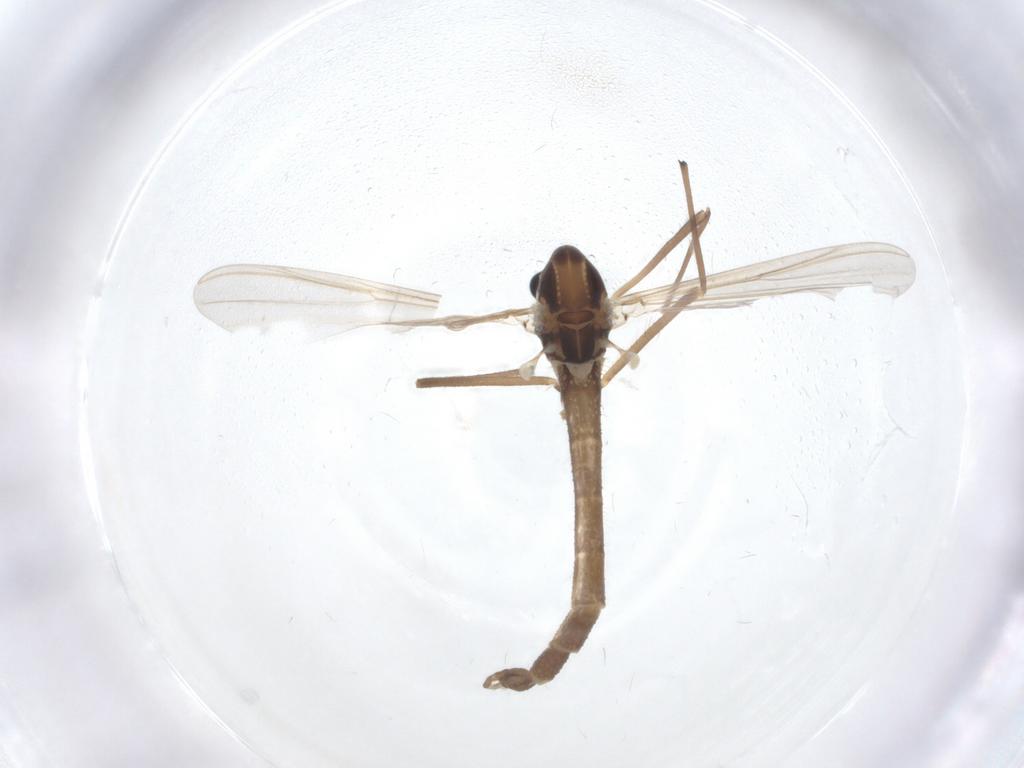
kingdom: Animalia
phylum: Arthropoda
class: Insecta
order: Diptera
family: Chironomidae
